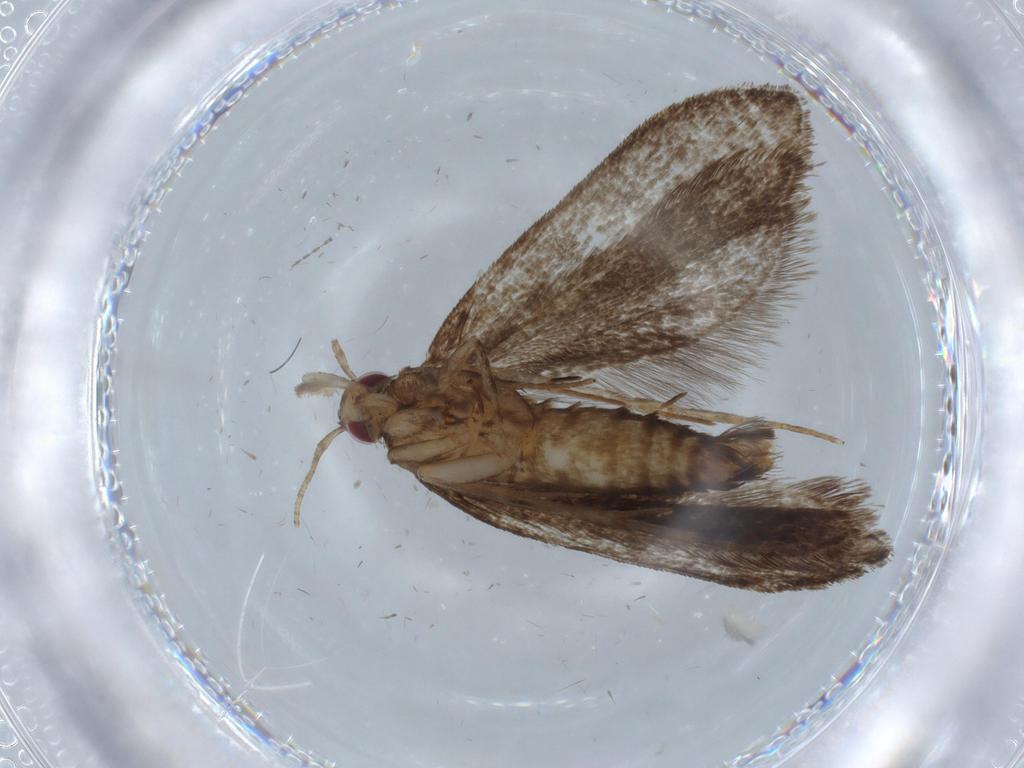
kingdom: Animalia
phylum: Arthropoda
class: Insecta
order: Lepidoptera
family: Gelechiidae
